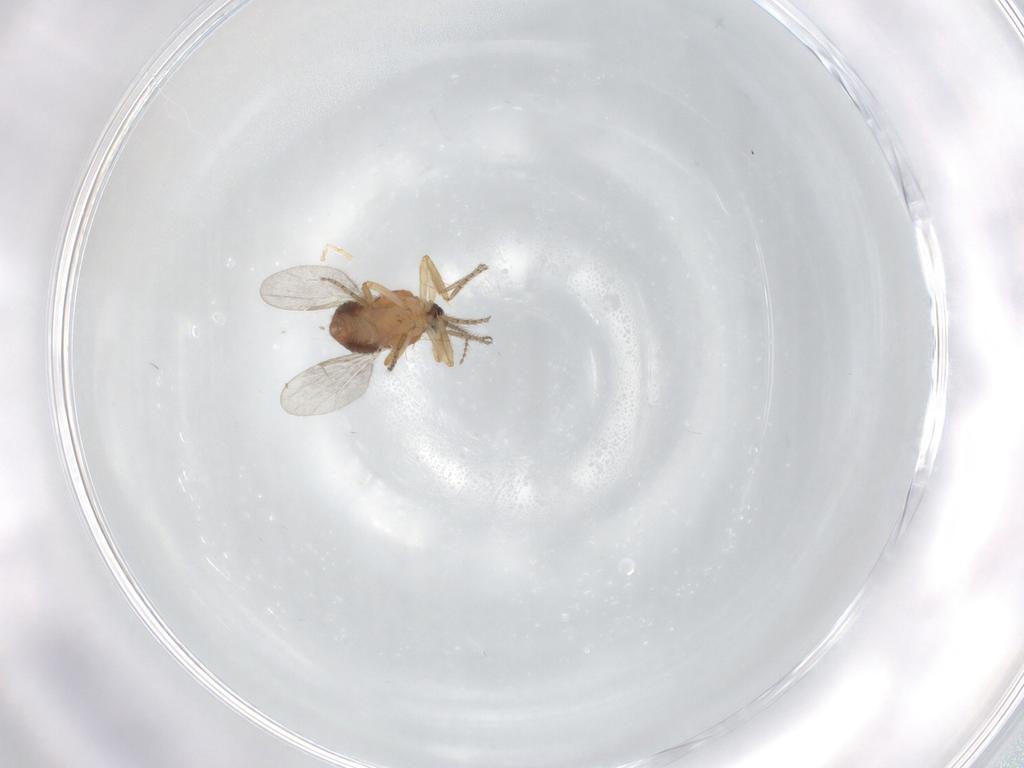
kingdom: Animalia
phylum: Arthropoda
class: Insecta
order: Diptera
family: Ceratopogonidae
